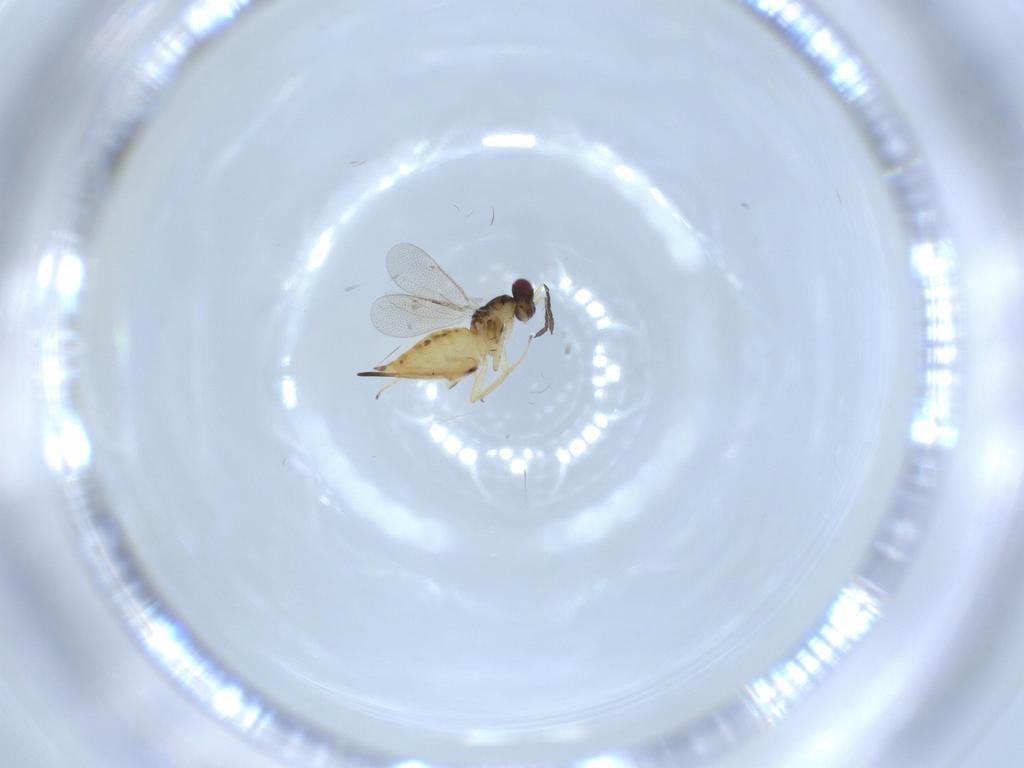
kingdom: Animalia
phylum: Arthropoda
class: Insecta
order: Hymenoptera
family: Eulophidae
